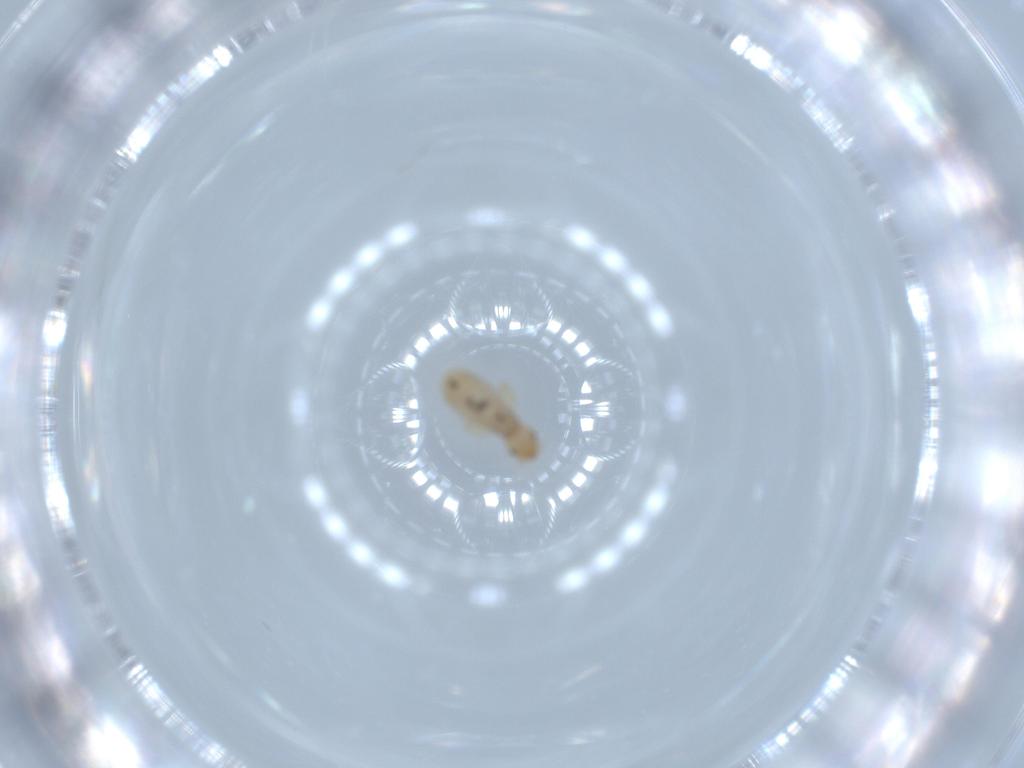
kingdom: Animalia
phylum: Arthropoda
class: Insecta
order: Psocodea
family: Liposcelididae
